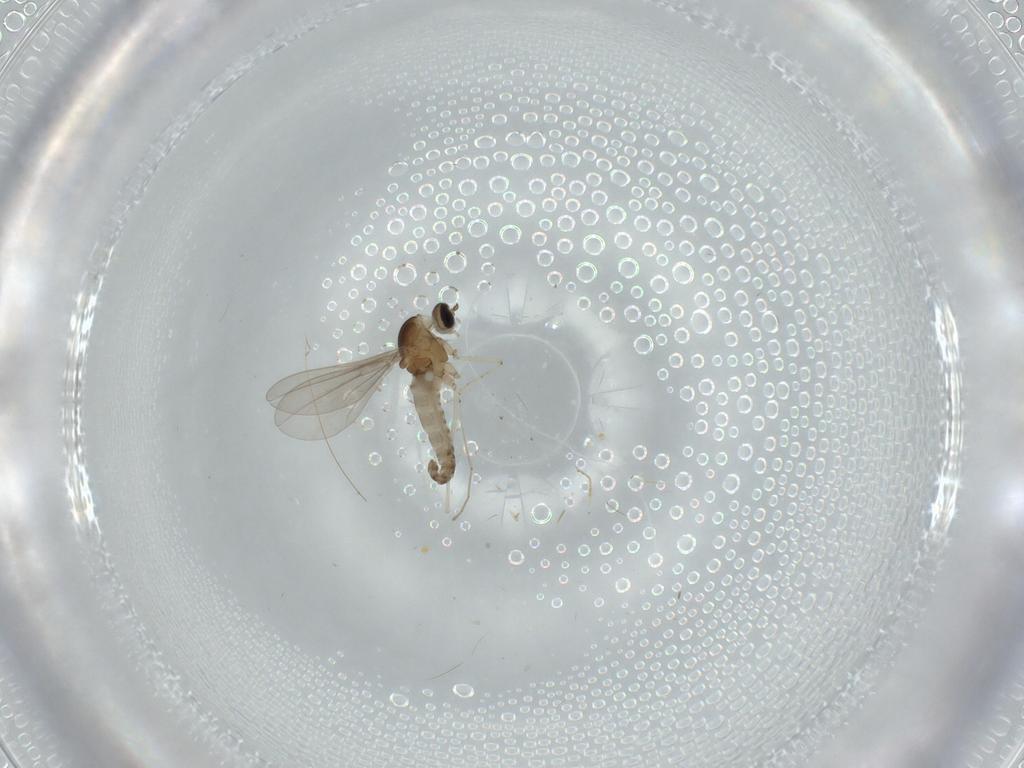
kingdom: Animalia
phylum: Arthropoda
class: Insecta
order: Diptera
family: Cecidomyiidae
